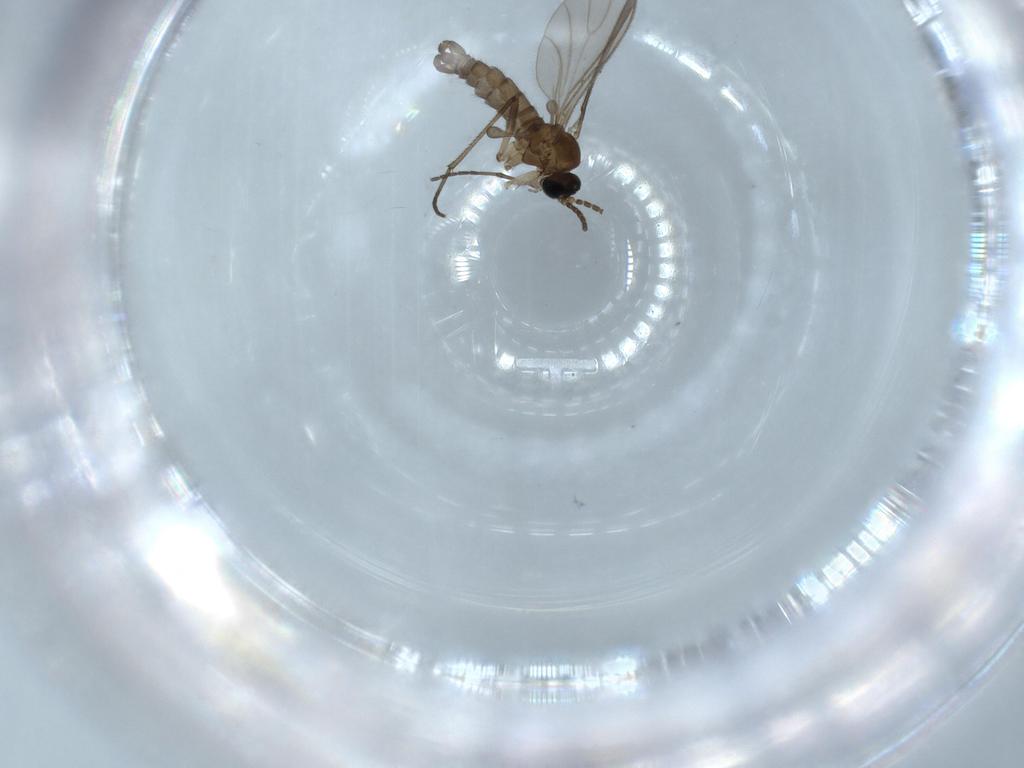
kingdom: Animalia
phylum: Arthropoda
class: Insecta
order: Diptera
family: Sciaridae
